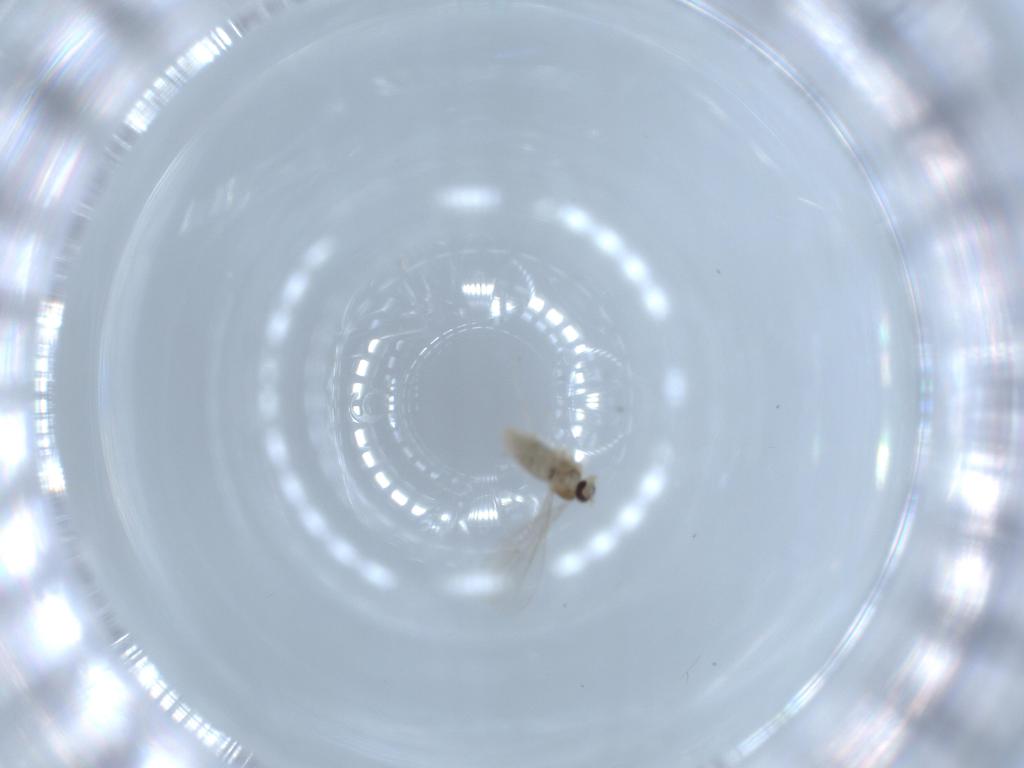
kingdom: Animalia
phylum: Arthropoda
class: Insecta
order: Diptera
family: Cecidomyiidae
